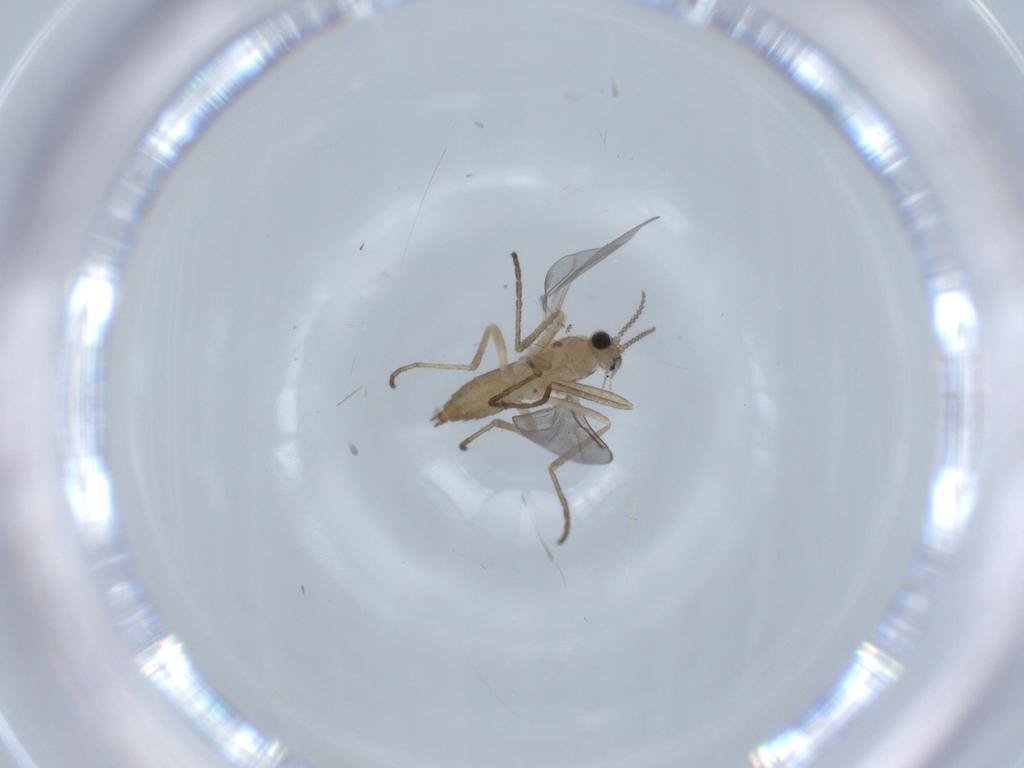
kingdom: Animalia
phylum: Arthropoda
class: Insecta
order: Diptera
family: Cecidomyiidae
